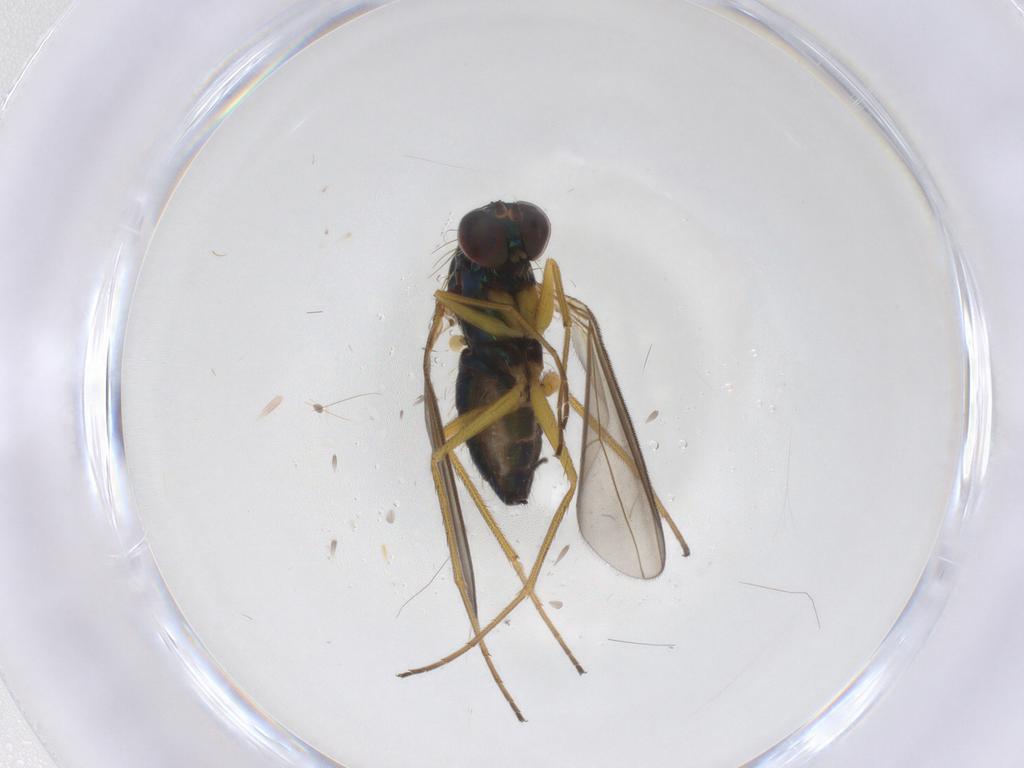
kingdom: Animalia
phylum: Arthropoda
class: Insecta
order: Diptera
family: Dolichopodidae
